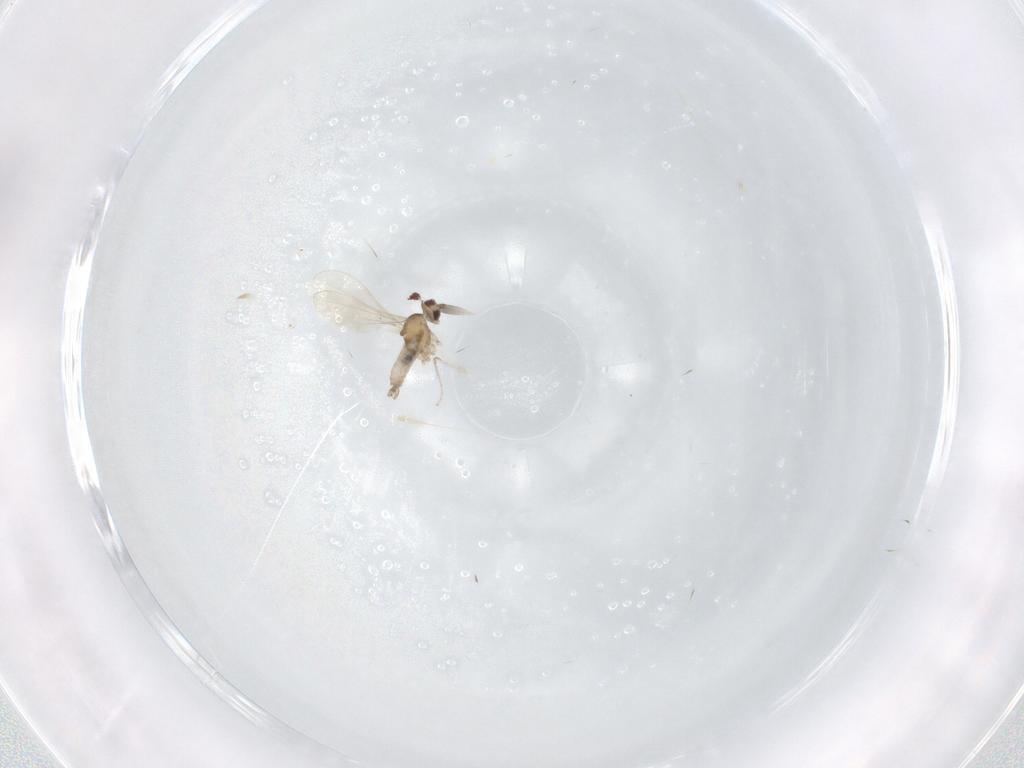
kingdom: Animalia
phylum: Arthropoda
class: Insecta
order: Diptera
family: Cecidomyiidae
